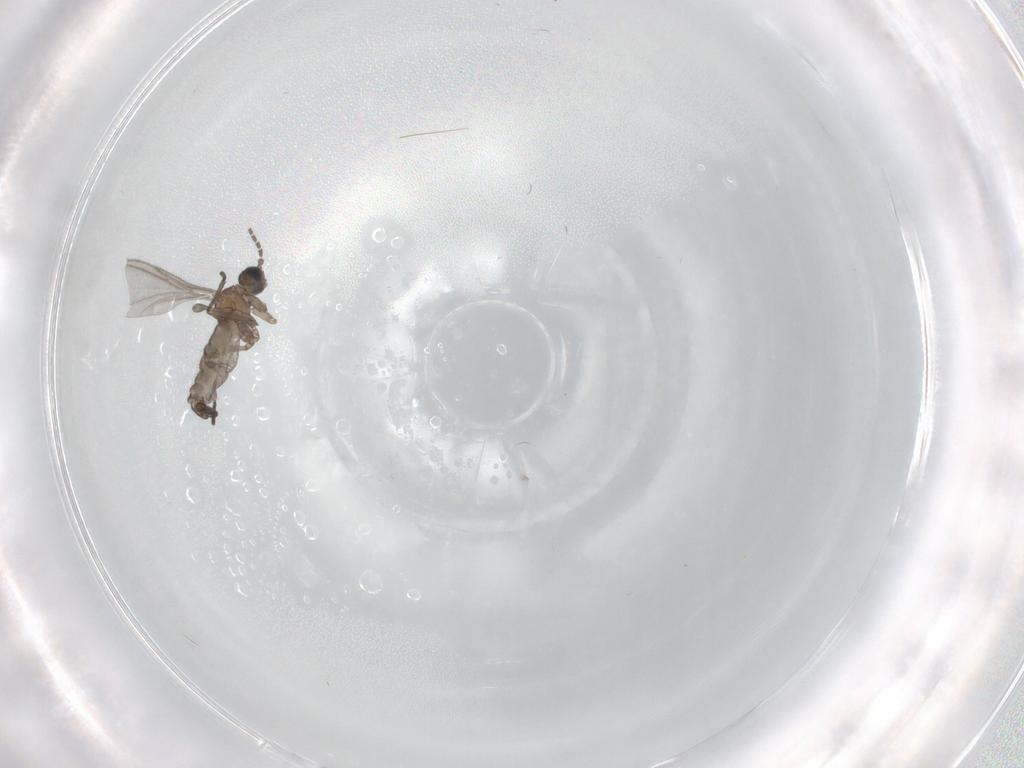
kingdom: Animalia
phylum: Arthropoda
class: Insecta
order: Diptera
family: Sciaridae
